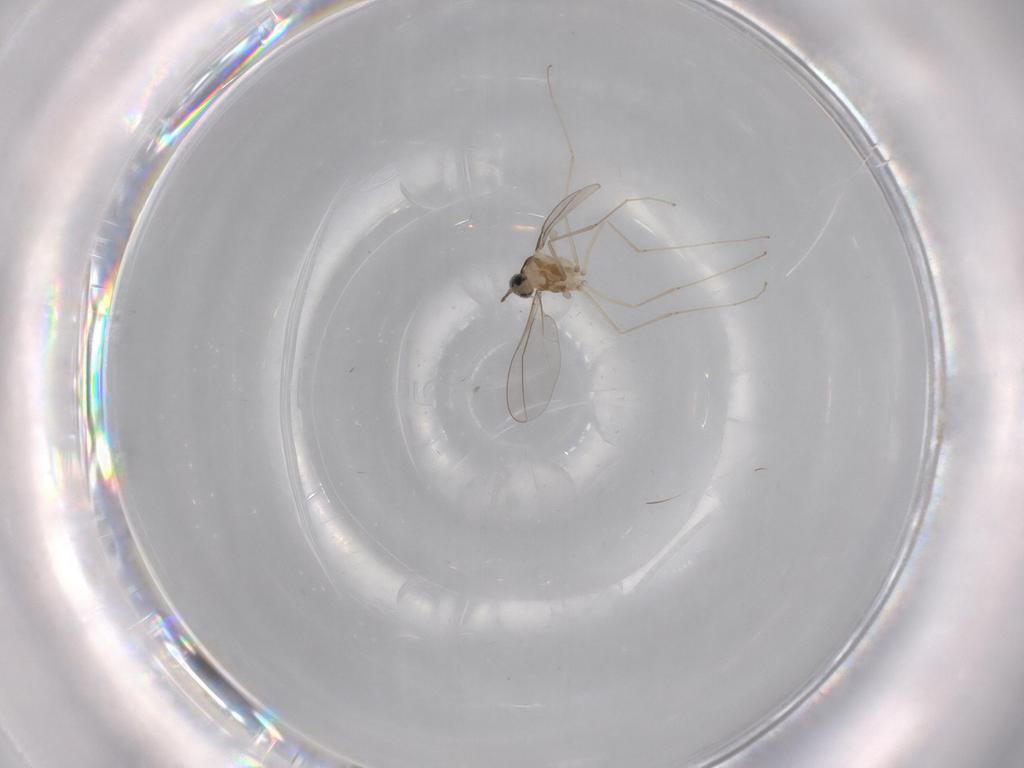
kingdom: Animalia
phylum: Arthropoda
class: Insecta
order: Diptera
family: Cecidomyiidae
